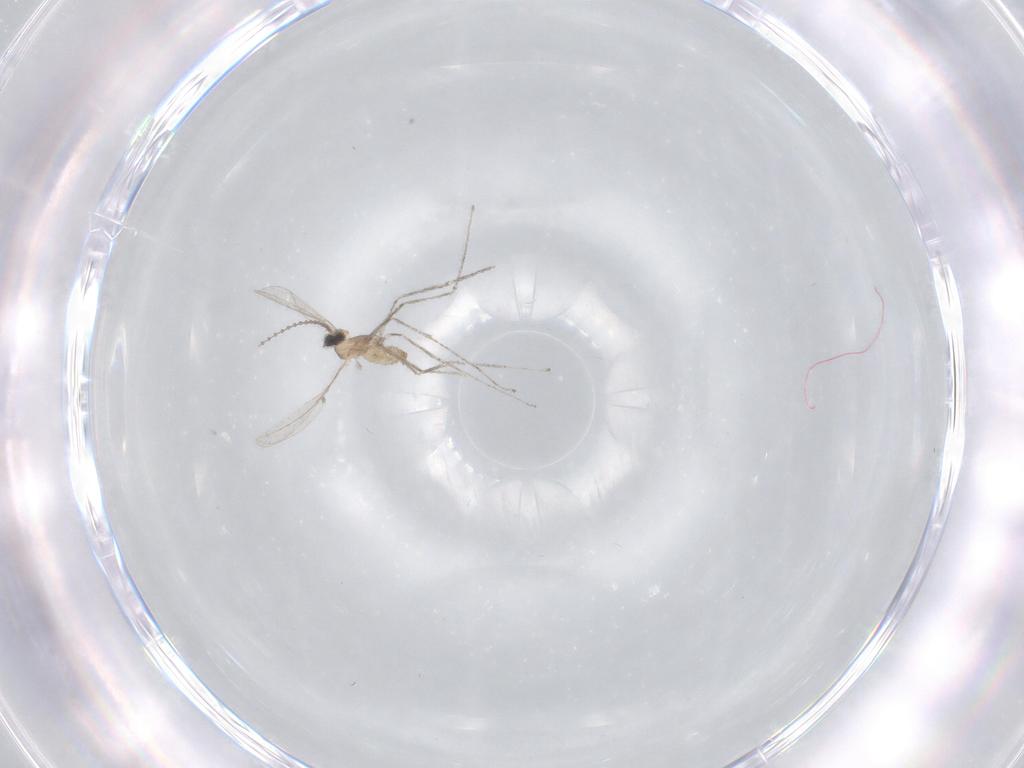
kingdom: Animalia
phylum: Arthropoda
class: Insecta
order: Diptera
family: Cecidomyiidae
